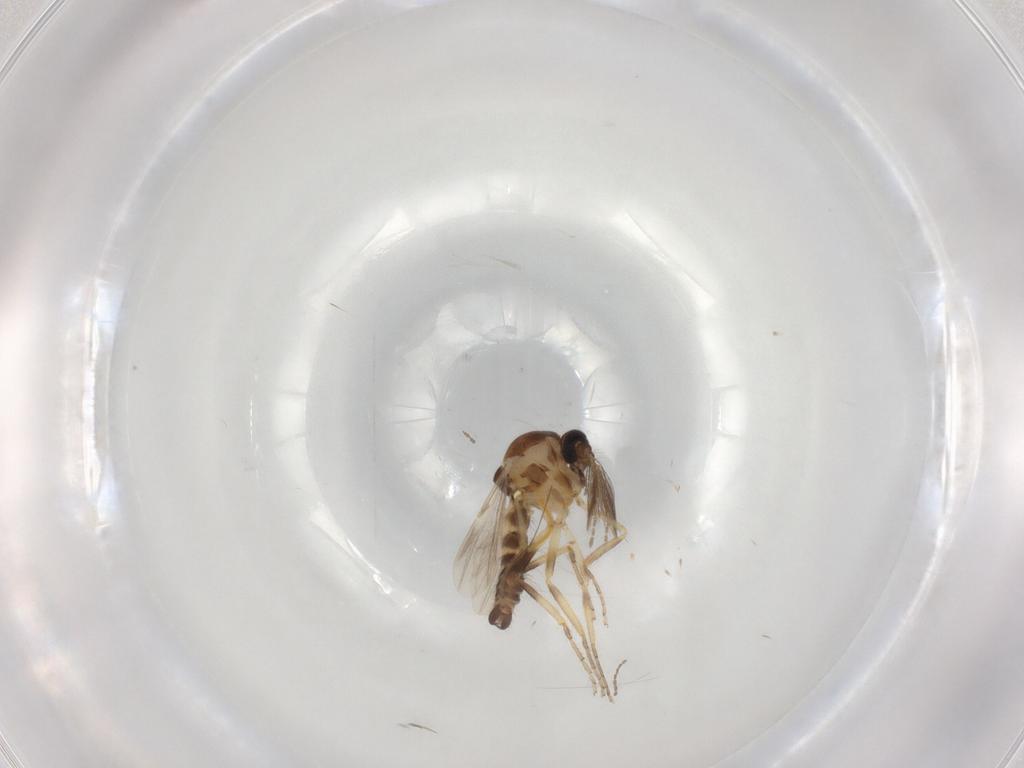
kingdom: Animalia
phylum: Arthropoda
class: Insecta
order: Diptera
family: Ceratopogonidae
